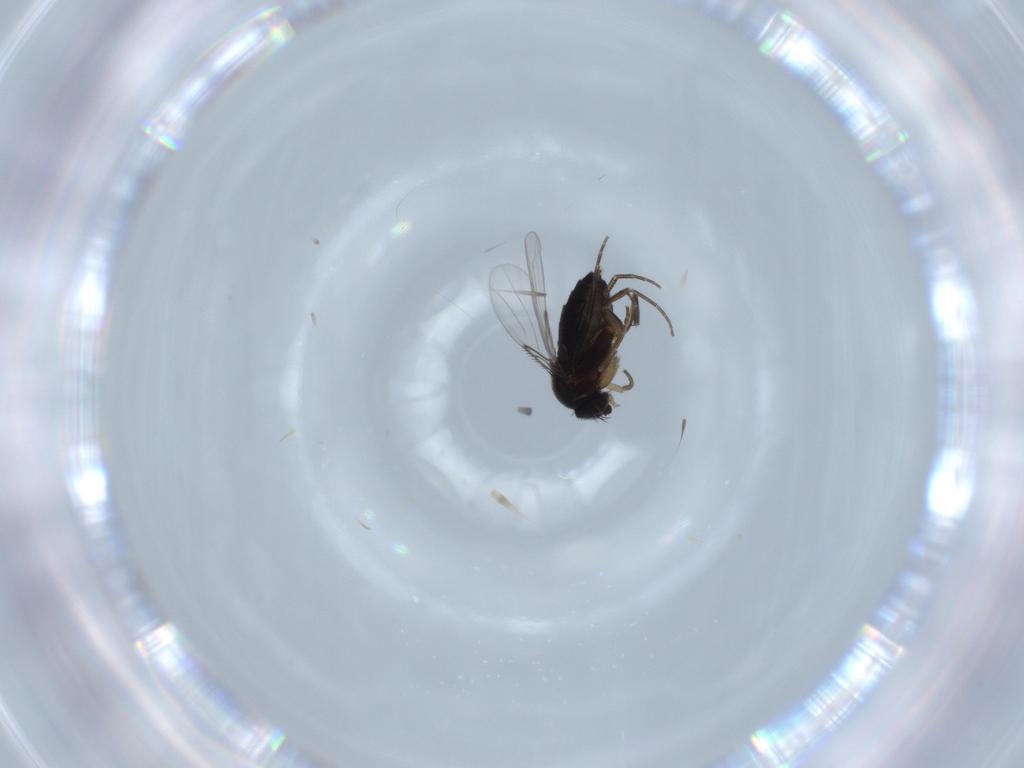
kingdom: Animalia
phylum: Arthropoda
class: Insecta
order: Diptera
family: Phoridae
